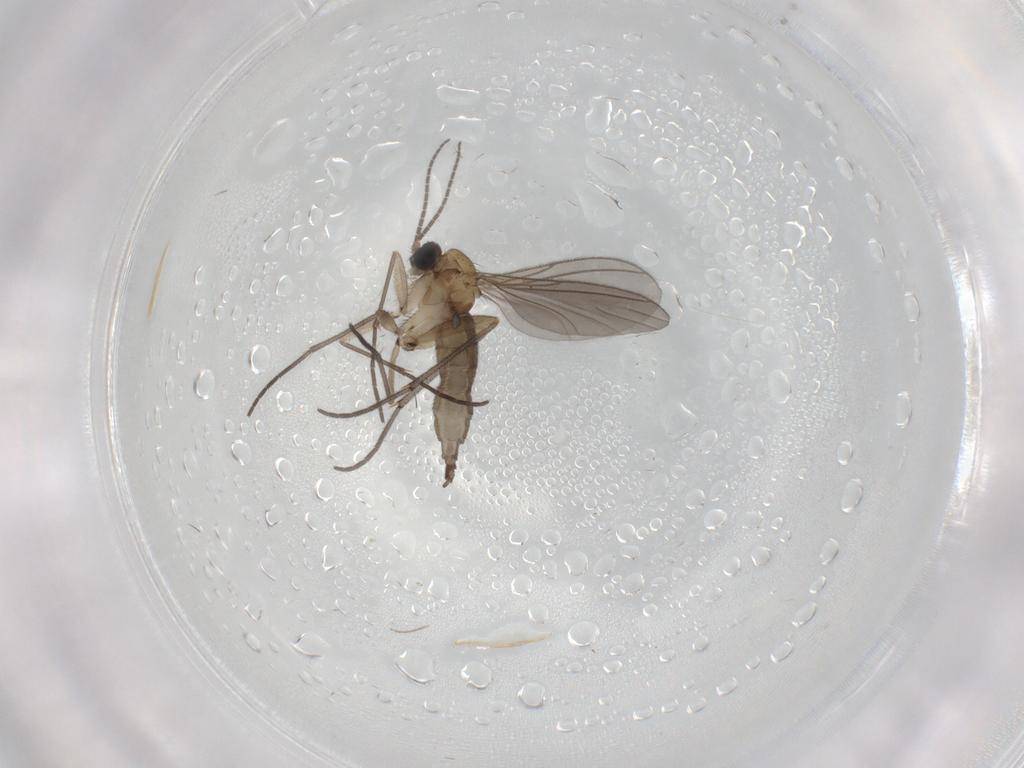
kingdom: Animalia
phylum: Arthropoda
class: Insecta
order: Diptera
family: Sciaridae
